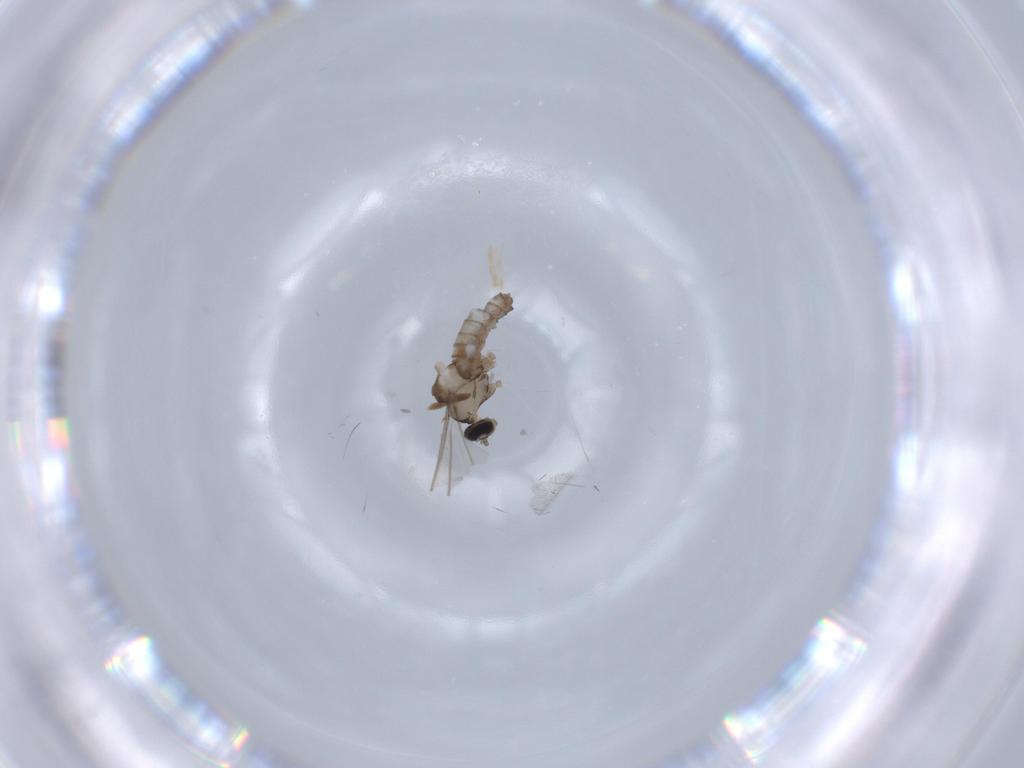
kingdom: Animalia
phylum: Arthropoda
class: Insecta
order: Diptera
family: Cecidomyiidae
